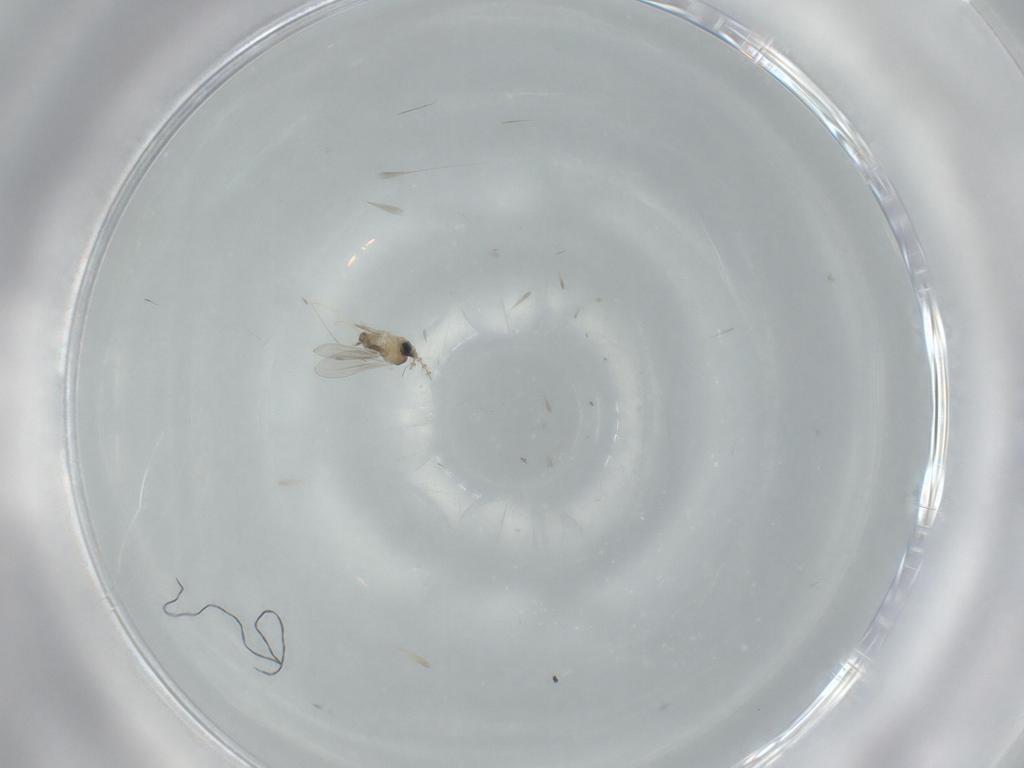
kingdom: Animalia
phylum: Arthropoda
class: Insecta
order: Diptera
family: Cecidomyiidae
